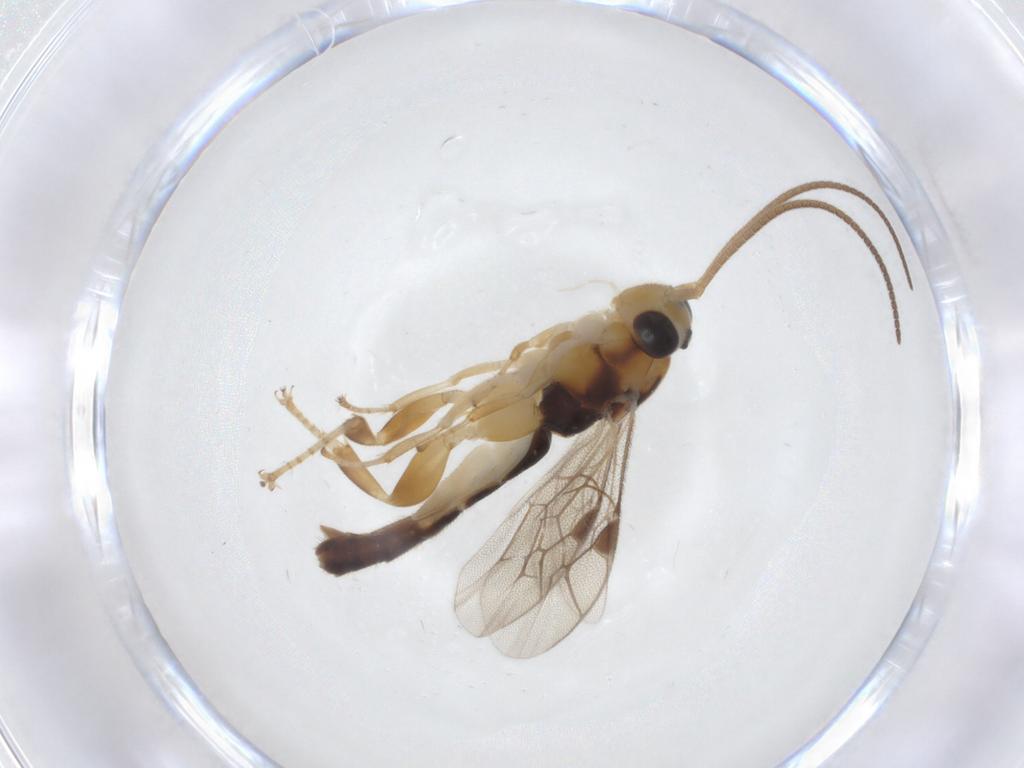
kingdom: Animalia
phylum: Arthropoda
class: Insecta
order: Hymenoptera
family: Ichneumonidae
